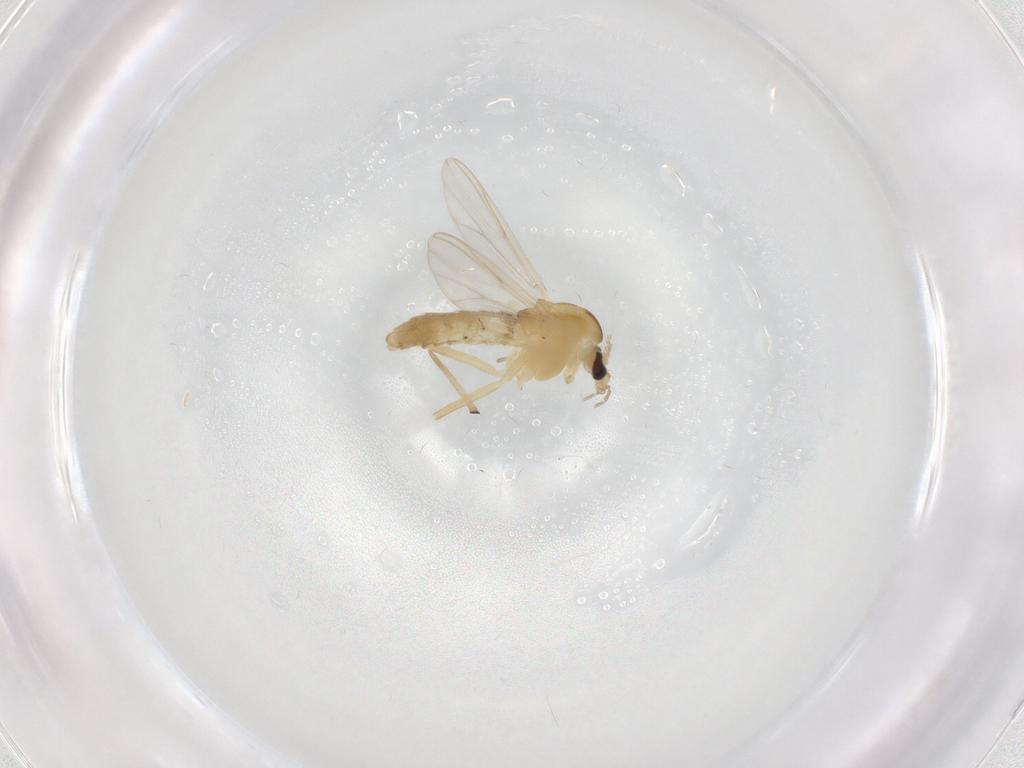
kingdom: Animalia
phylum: Arthropoda
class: Insecta
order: Diptera
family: Chironomidae
